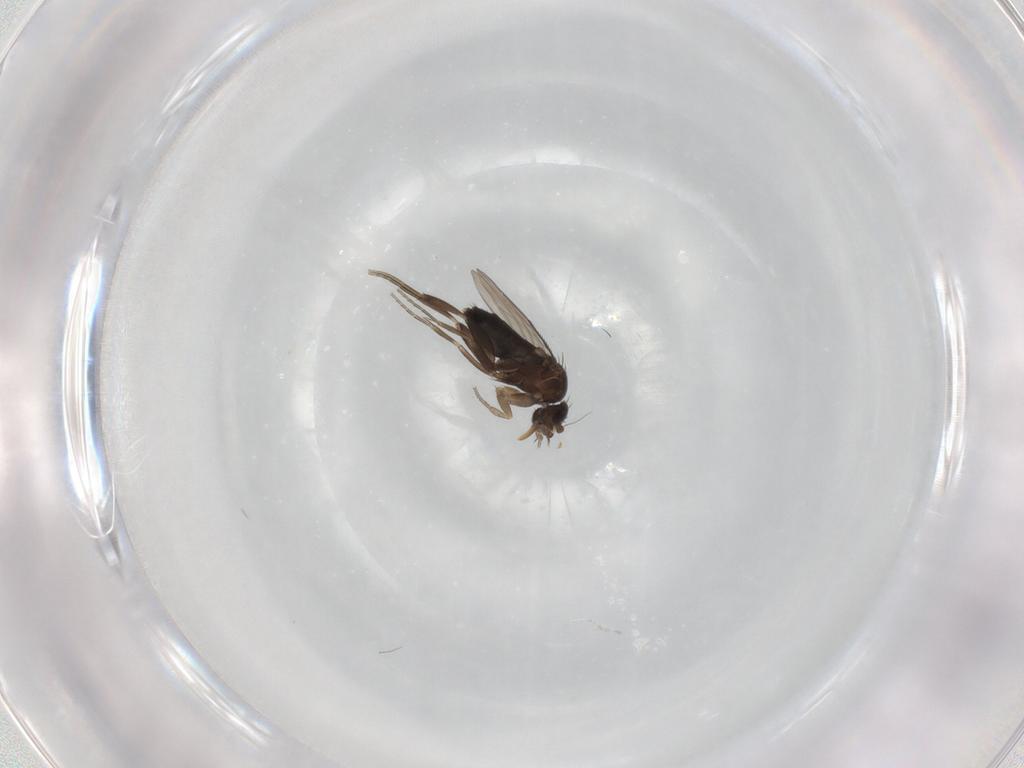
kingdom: Animalia
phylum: Arthropoda
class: Insecta
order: Diptera
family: Phoridae
